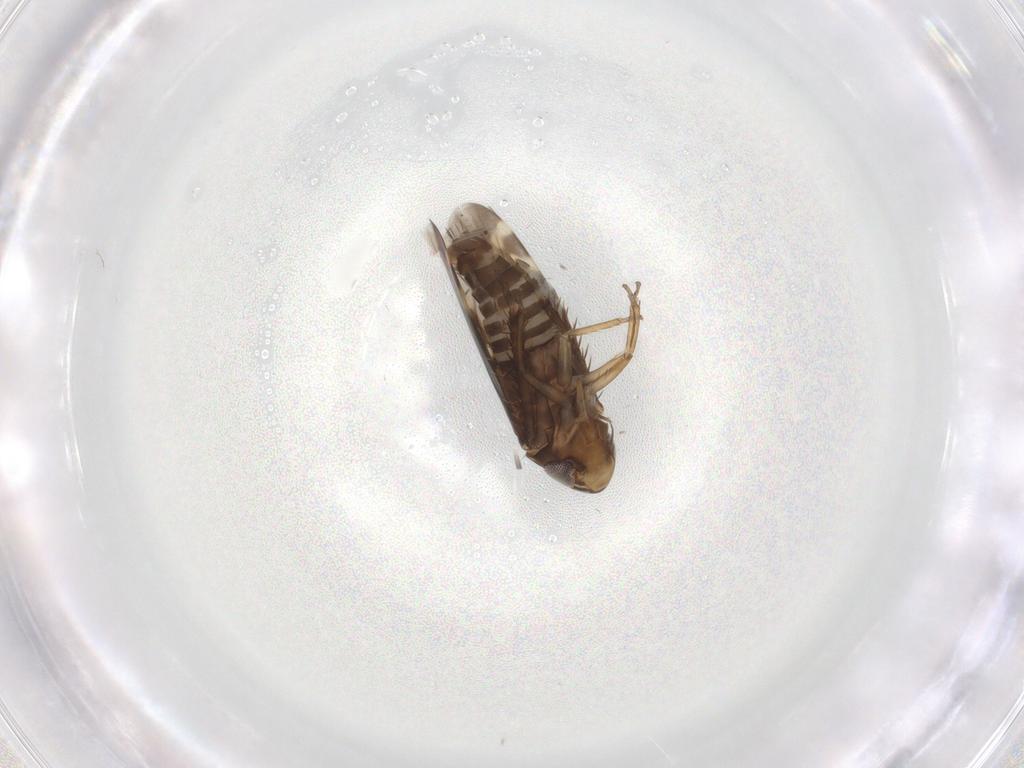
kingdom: Animalia
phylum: Arthropoda
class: Insecta
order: Hemiptera
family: Cicadellidae
